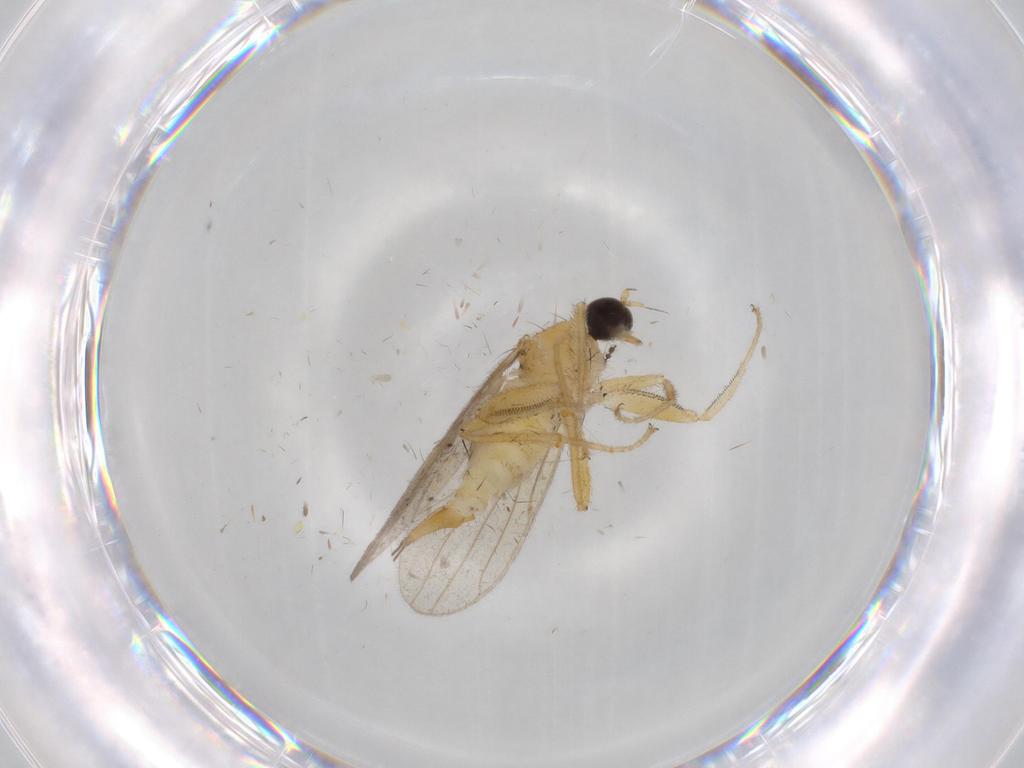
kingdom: Animalia
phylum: Arthropoda
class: Insecta
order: Diptera
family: Hybotidae
